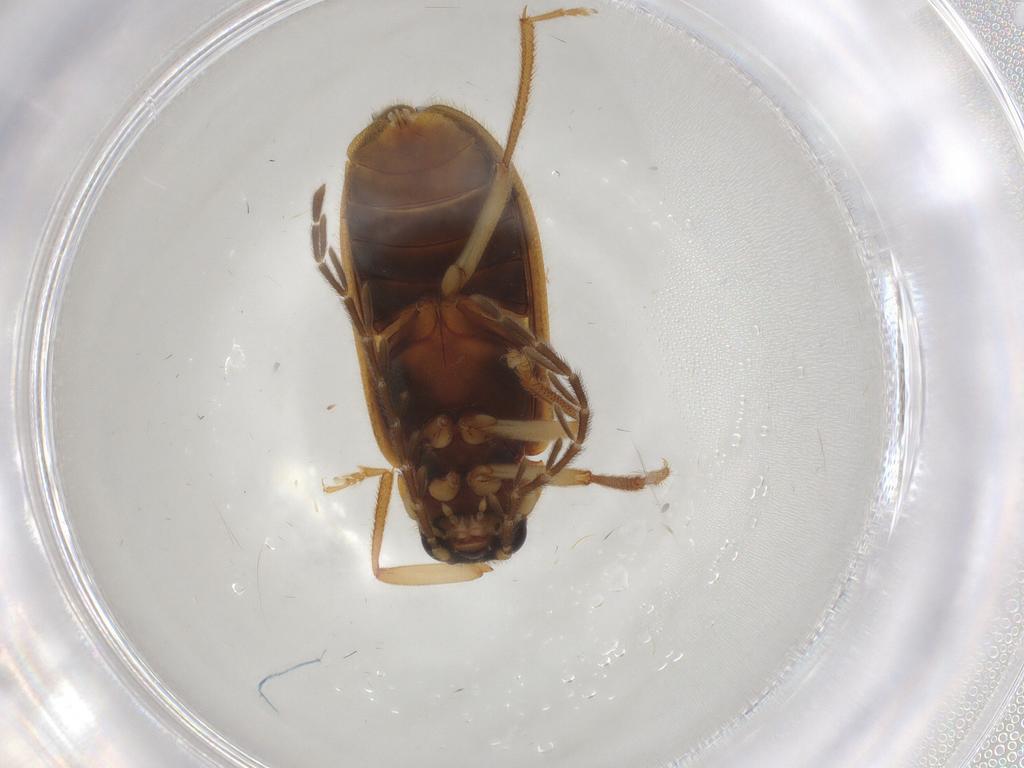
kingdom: Animalia
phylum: Arthropoda
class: Insecta
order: Coleoptera
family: Ptilodactylidae
